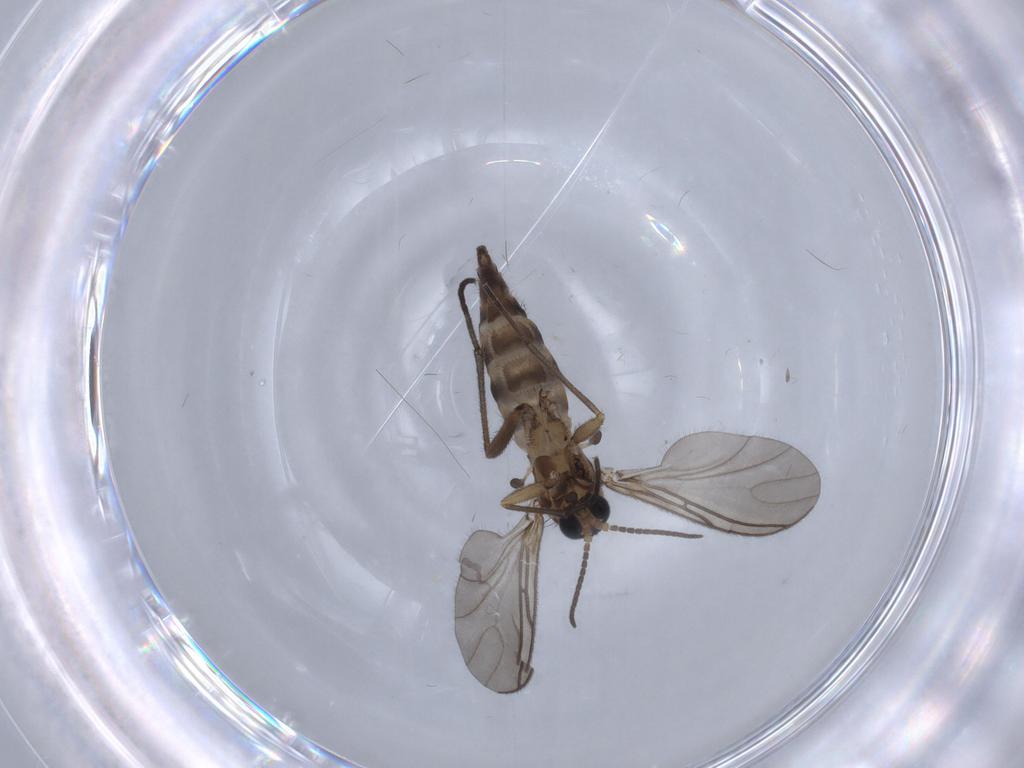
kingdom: Animalia
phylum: Arthropoda
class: Insecta
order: Diptera
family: Sciaridae
